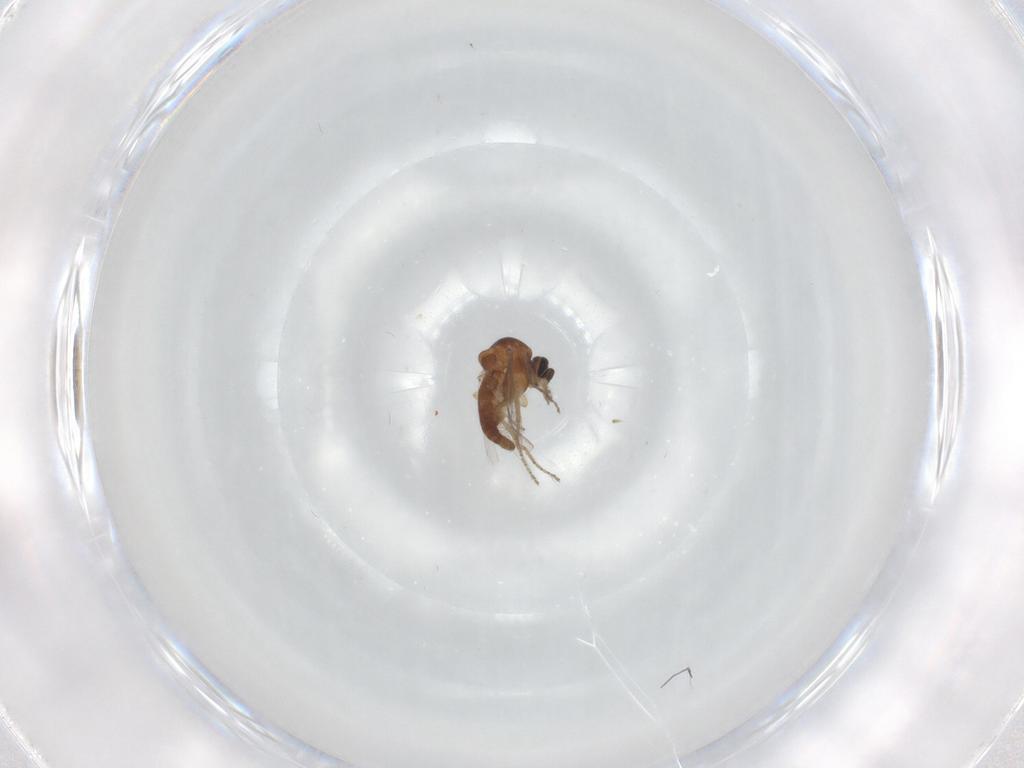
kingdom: Animalia
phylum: Arthropoda
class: Insecta
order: Diptera
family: Ceratopogonidae
